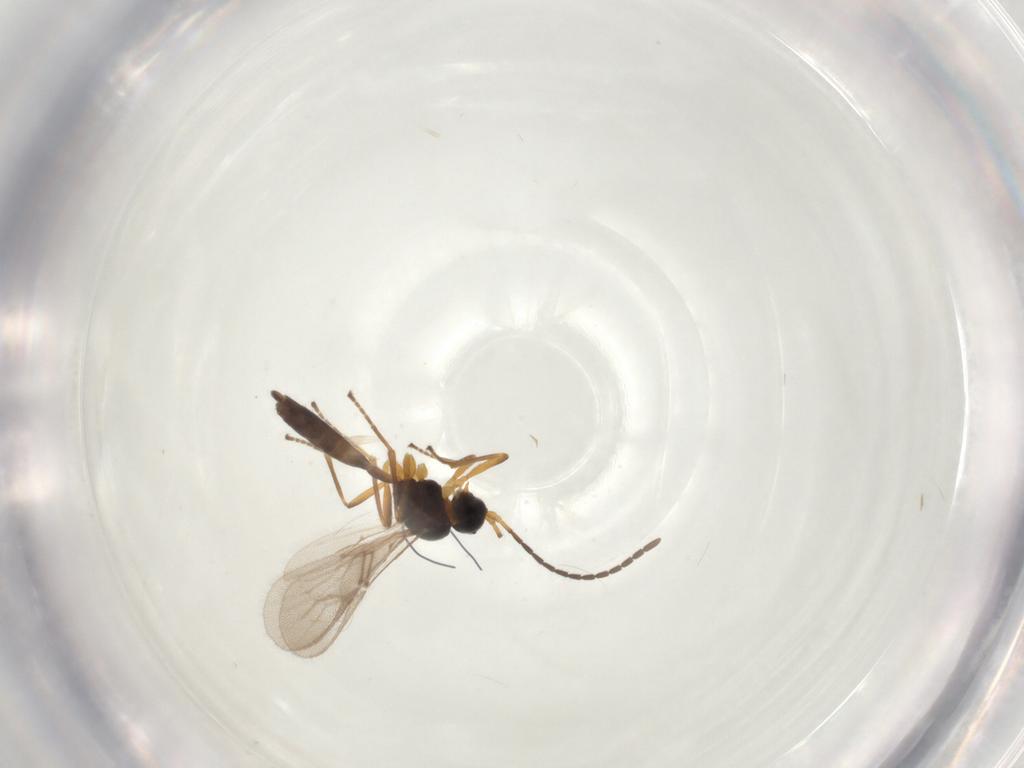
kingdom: Animalia
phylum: Arthropoda
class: Insecta
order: Hymenoptera
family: Braconidae
